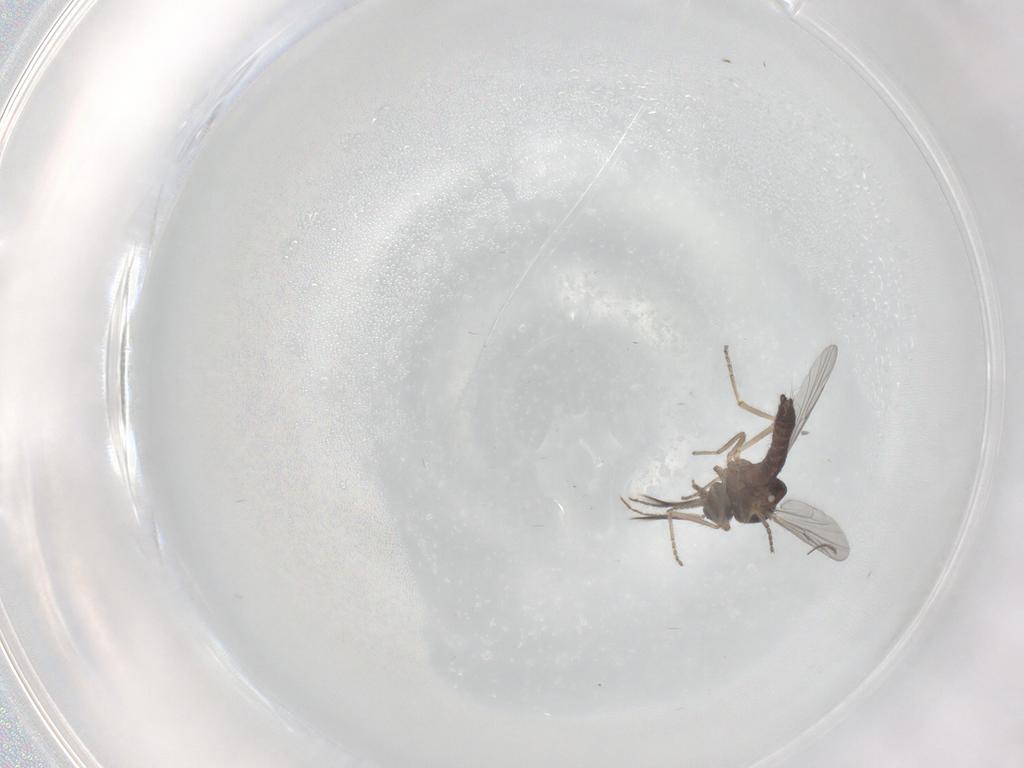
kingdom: Animalia
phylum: Arthropoda
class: Insecta
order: Diptera
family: Ceratopogonidae
